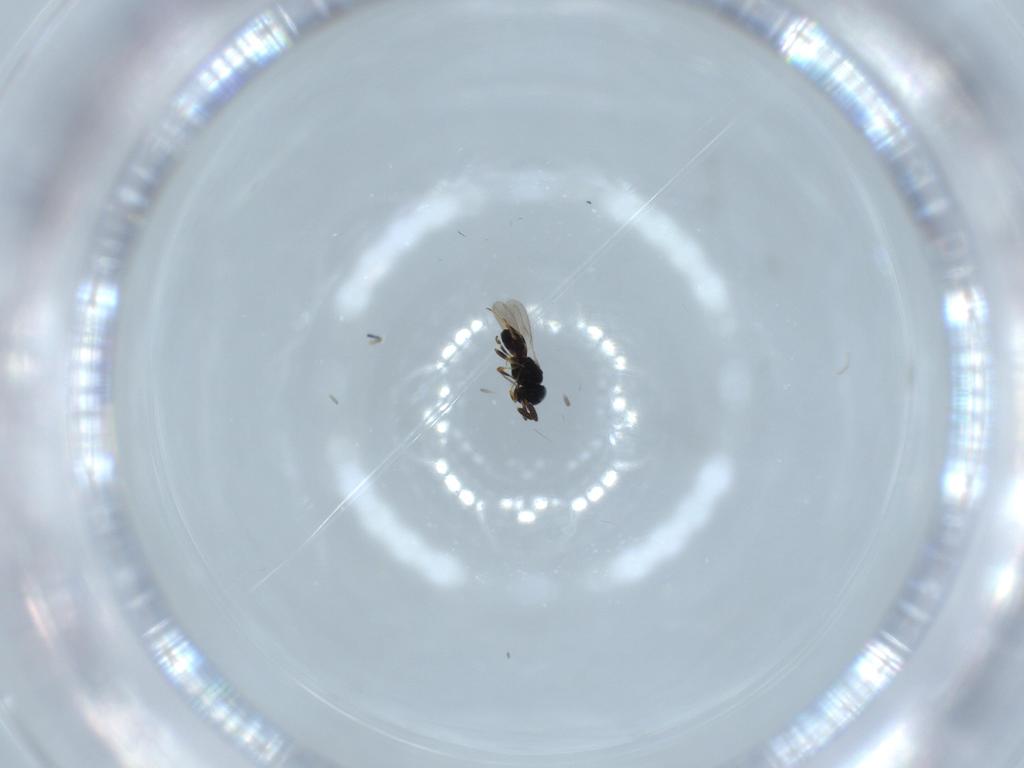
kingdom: Animalia
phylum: Arthropoda
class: Insecta
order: Hymenoptera
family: Scelionidae
